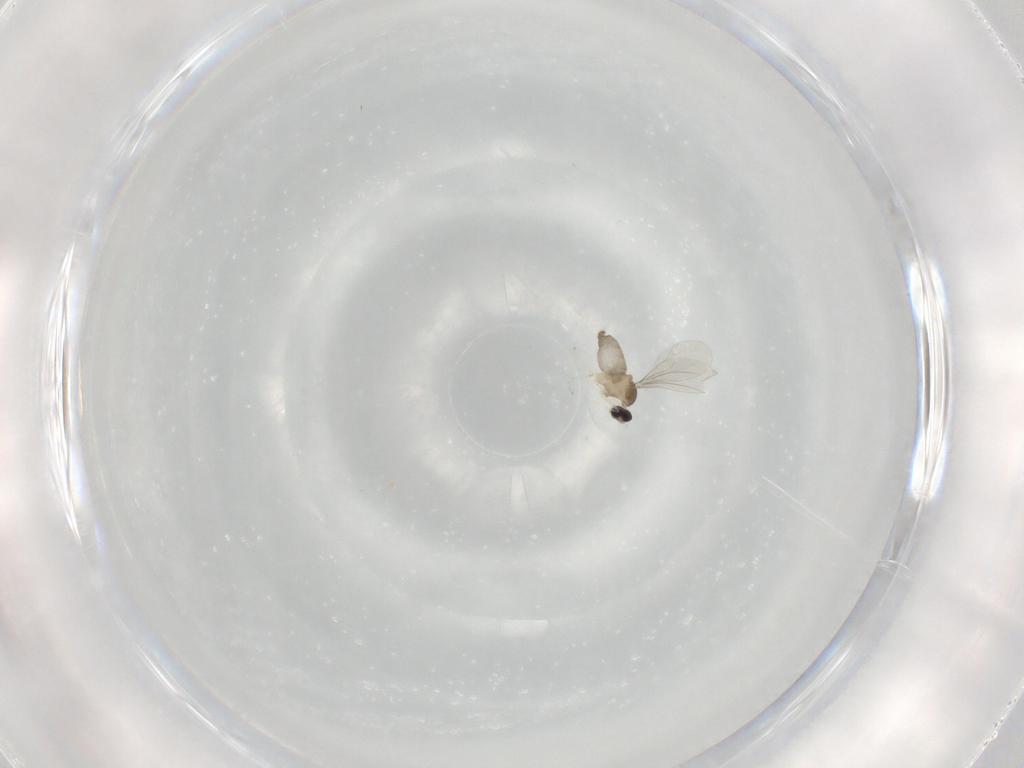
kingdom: Animalia
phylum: Arthropoda
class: Insecta
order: Diptera
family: Cecidomyiidae
